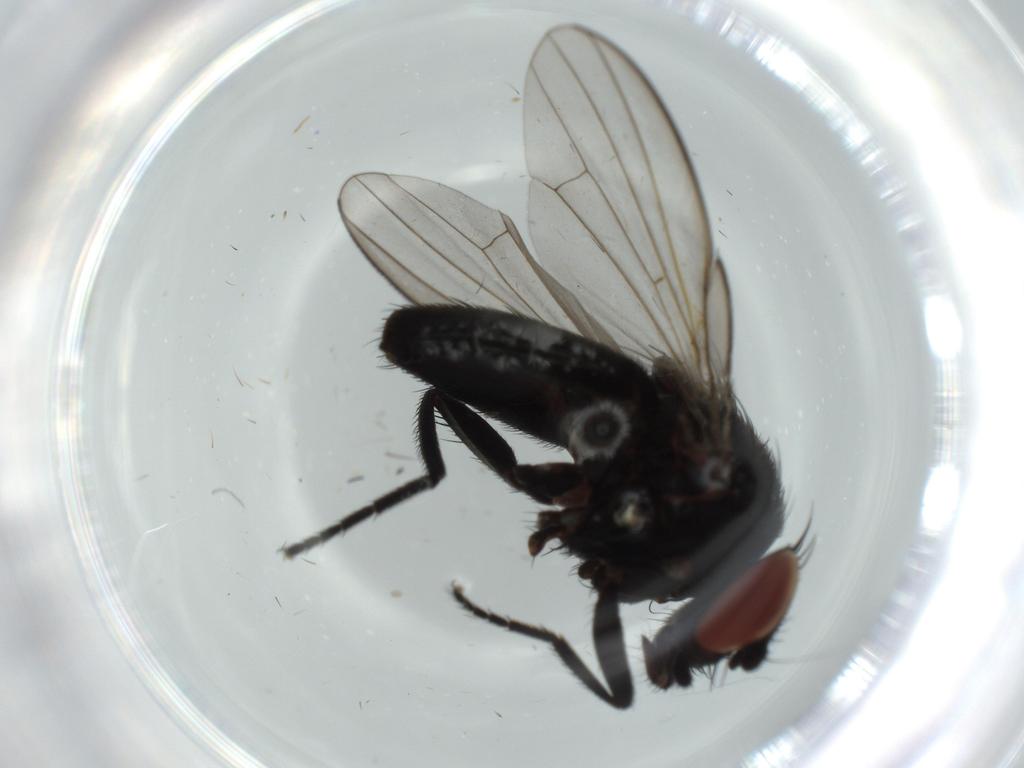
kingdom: Animalia
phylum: Arthropoda
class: Insecta
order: Diptera
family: Milichiidae
